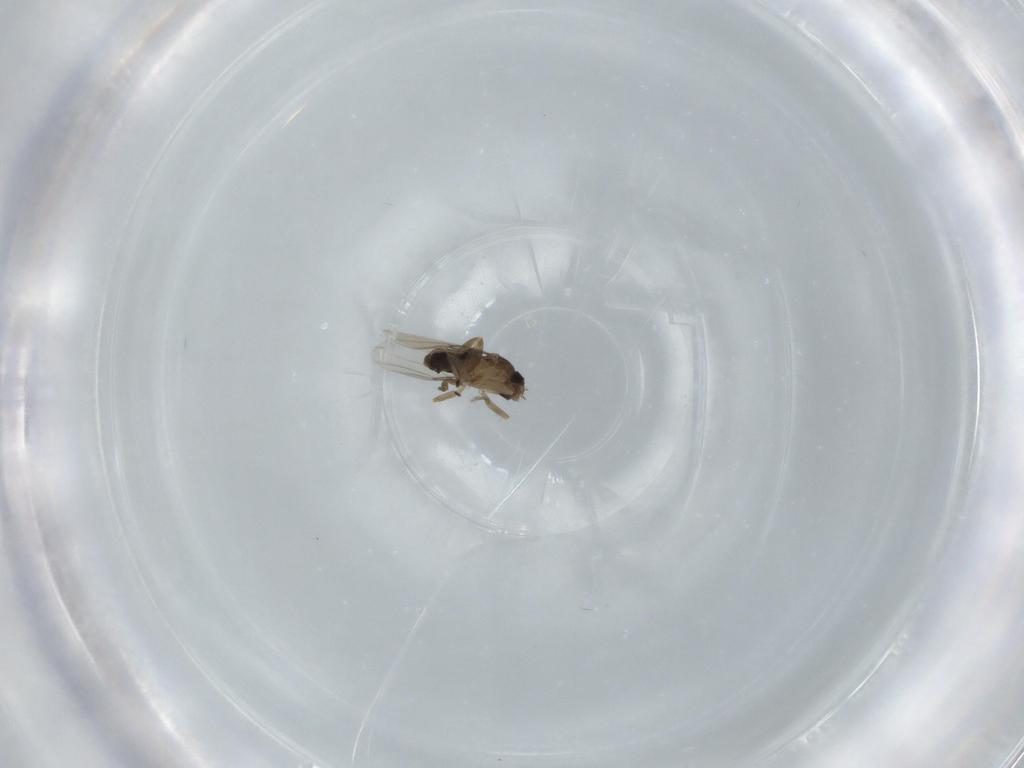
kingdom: Animalia
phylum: Arthropoda
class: Insecta
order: Diptera
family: Phoridae
